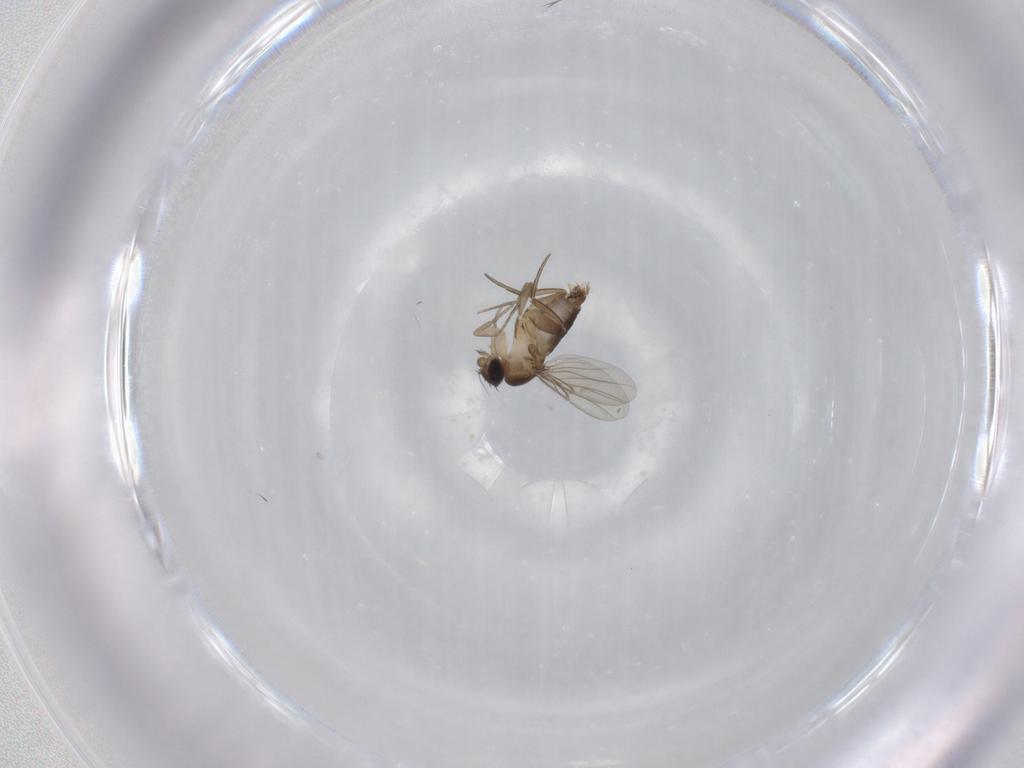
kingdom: Animalia
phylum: Arthropoda
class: Insecta
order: Diptera
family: Phoridae
